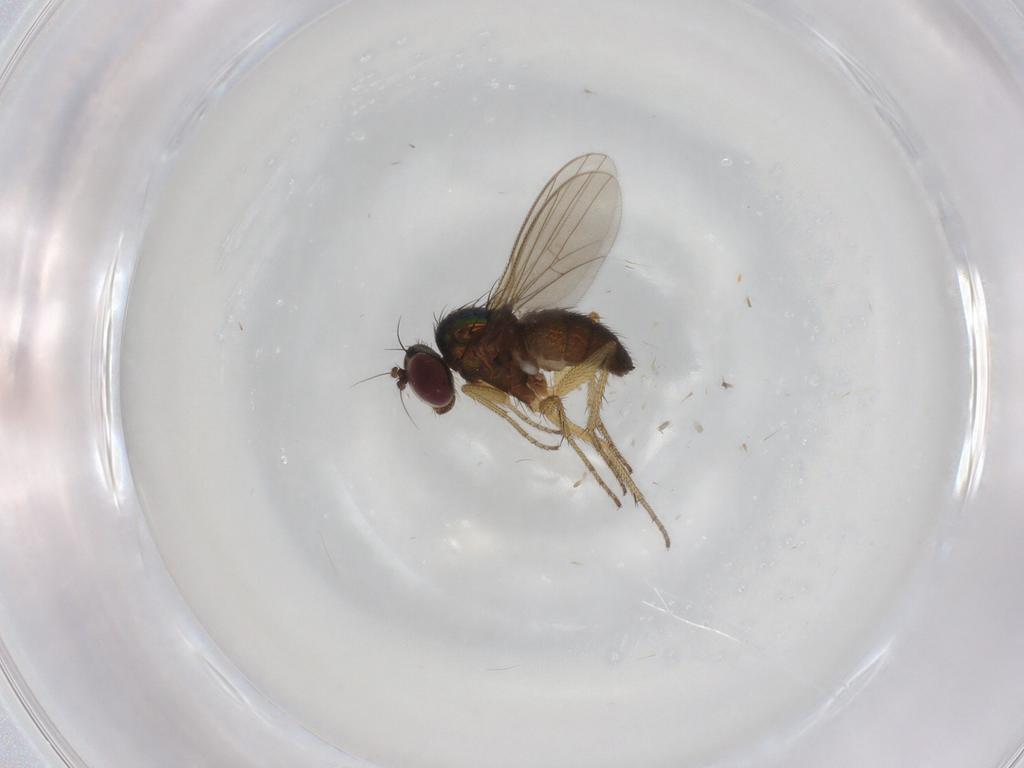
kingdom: Animalia
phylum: Arthropoda
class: Insecta
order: Diptera
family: Dolichopodidae
